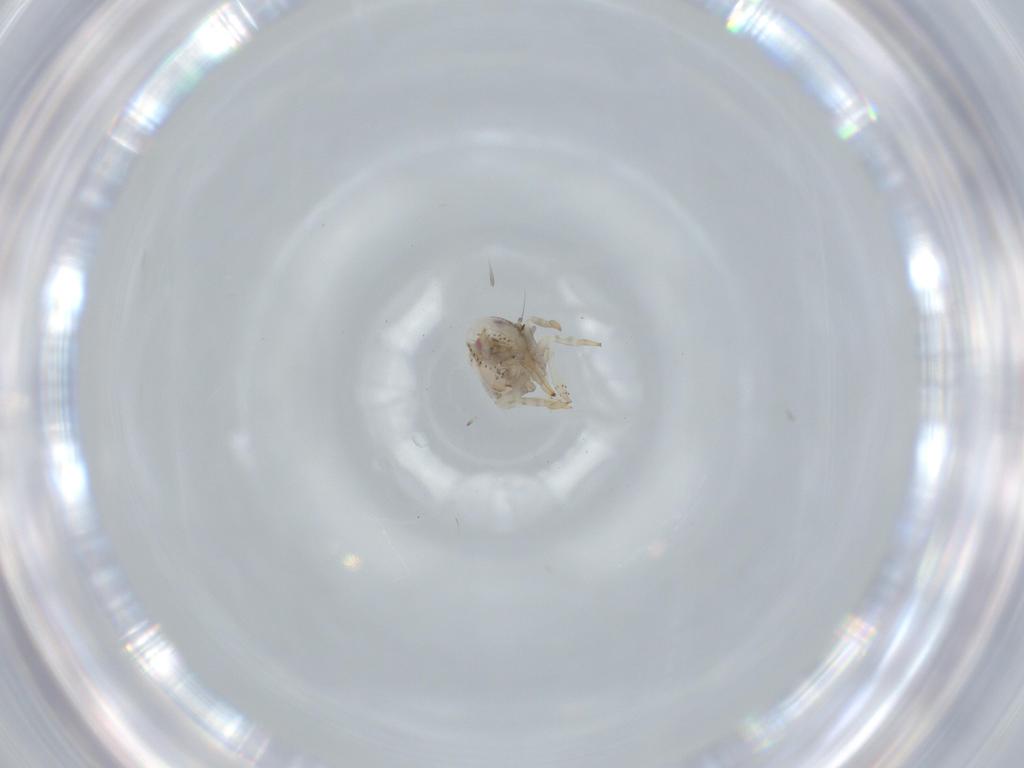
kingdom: Animalia
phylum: Arthropoda
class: Insecta
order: Hemiptera
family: Acanaloniidae
